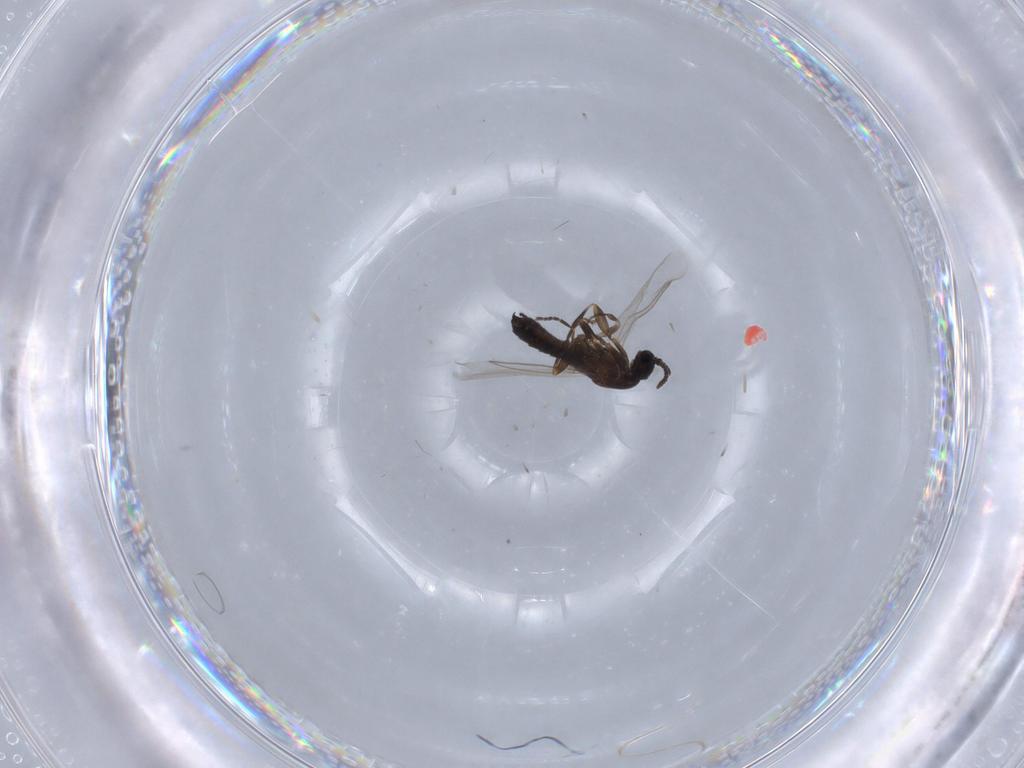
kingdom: Animalia
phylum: Arthropoda
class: Insecta
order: Diptera
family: Scatopsidae
